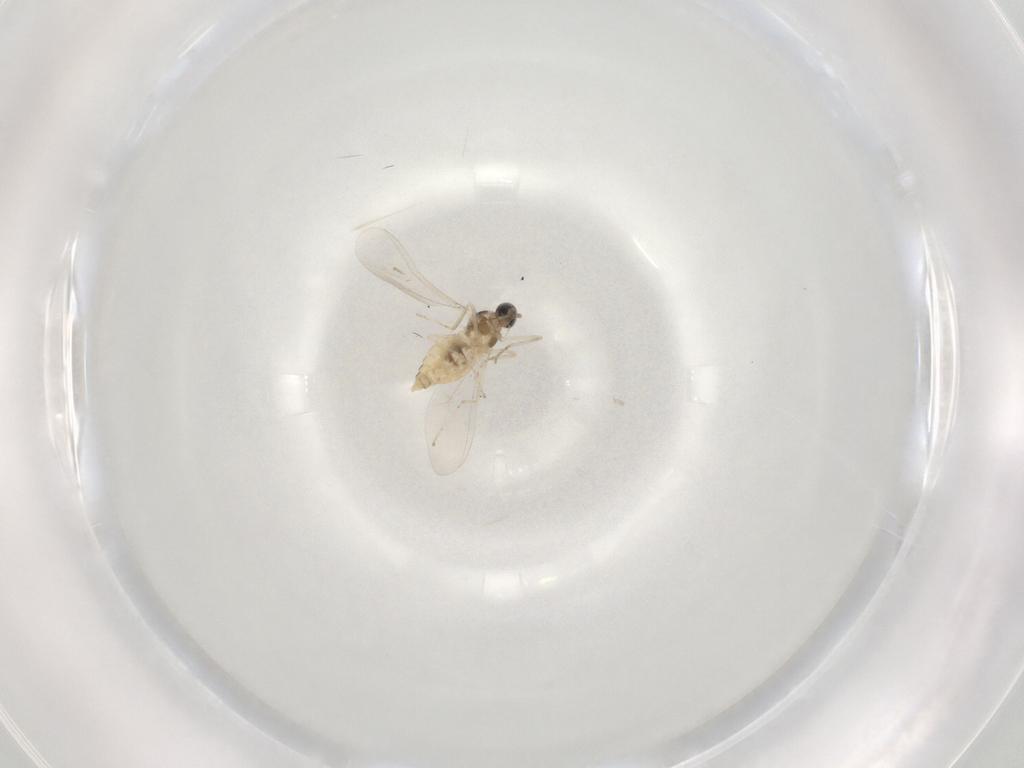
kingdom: Animalia
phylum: Arthropoda
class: Insecta
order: Diptera
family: Cecidomyiidae
